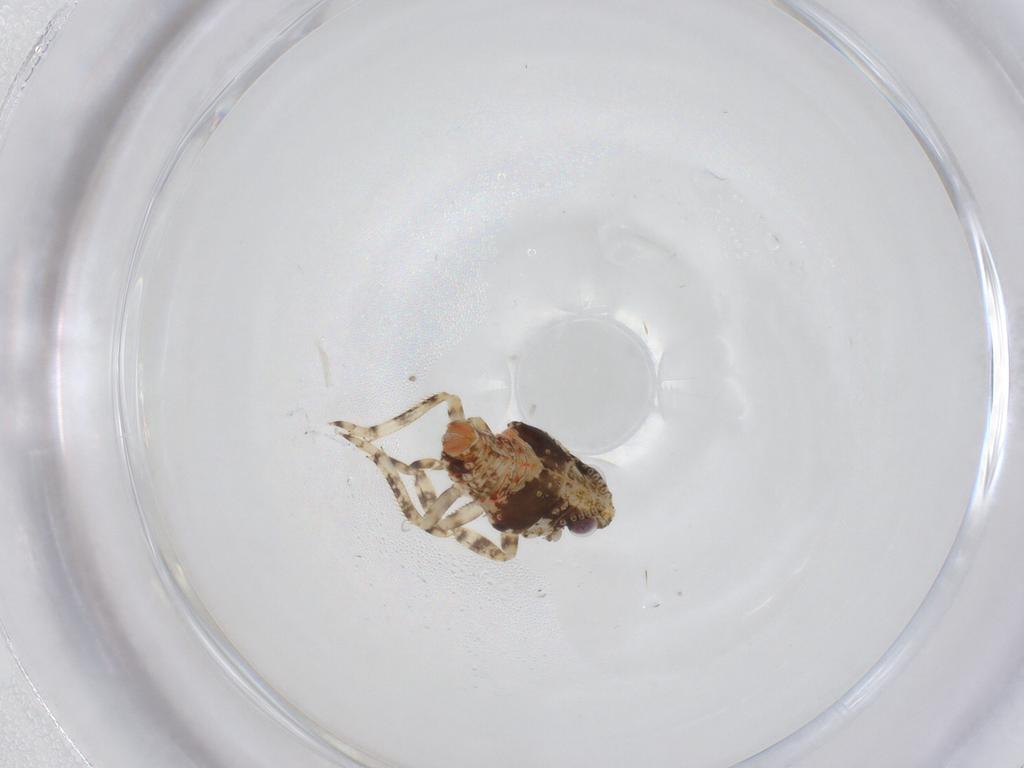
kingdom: Animalia
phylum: Arthropoda
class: Insecta
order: Hemiptera
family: Nogodinidae
